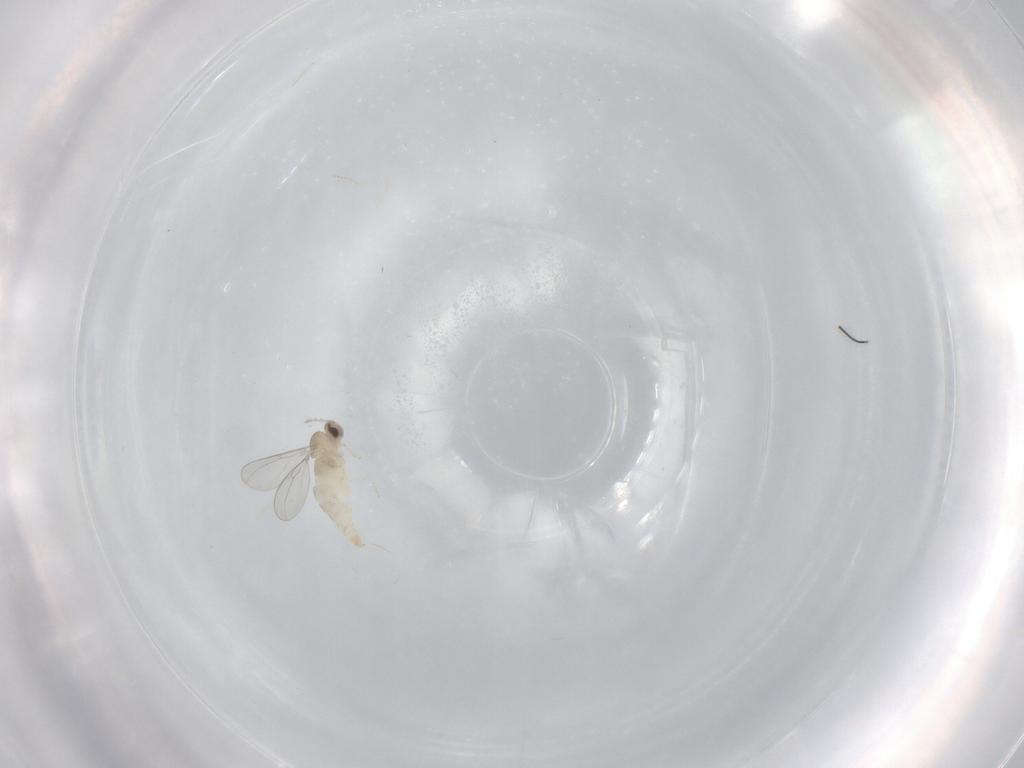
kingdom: Animalia
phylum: Arthropoda
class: Insecta
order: Diptera
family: Cecidomyiidae
